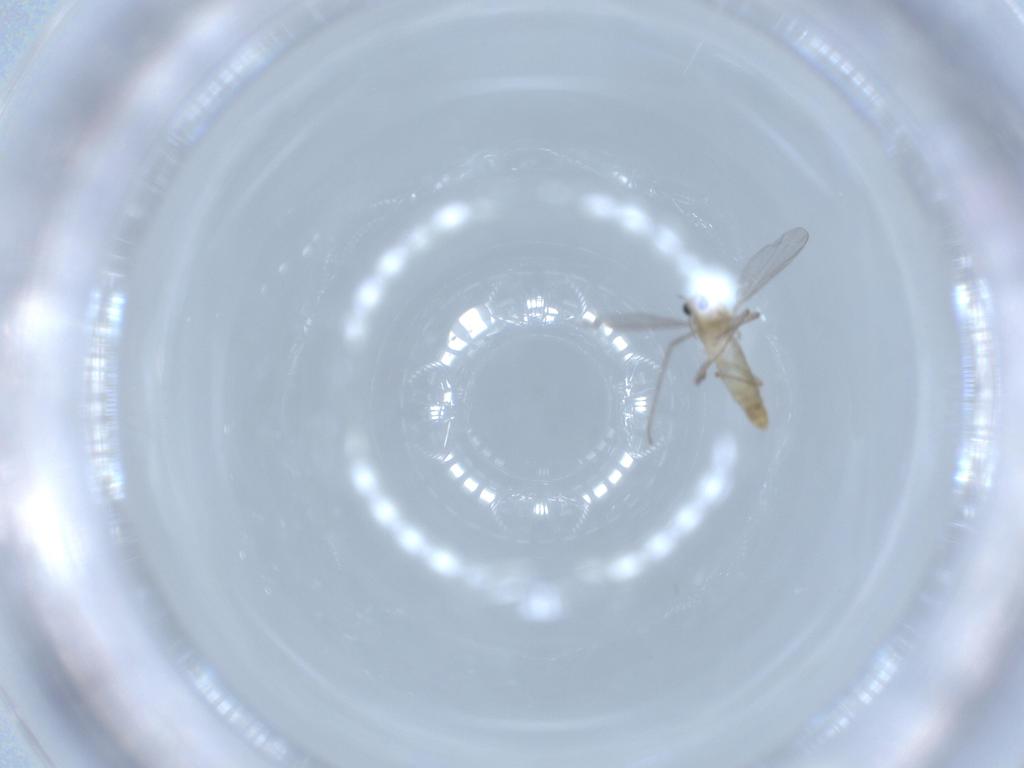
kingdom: Animalia
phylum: Arthropoda
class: Insecta
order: Diptera
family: Chironomidae
